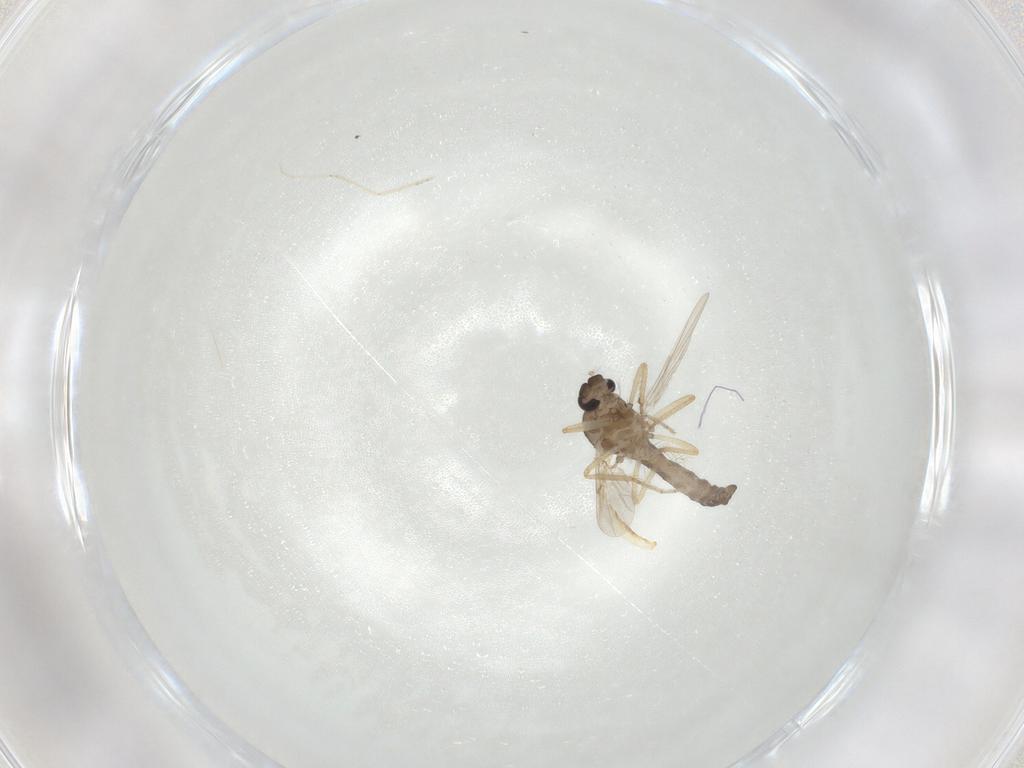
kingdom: Animalia
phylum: Arthropoda
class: Insecta
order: Diptera
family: Ceratopogonidae
